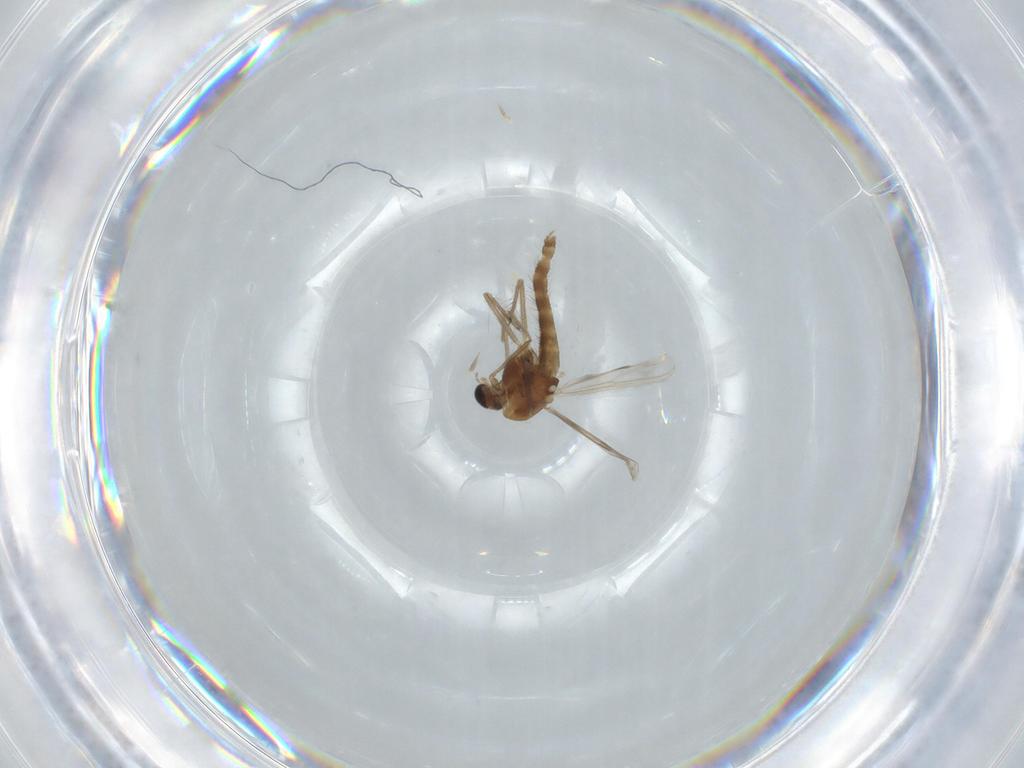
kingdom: Animalia
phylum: Arthropoda
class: Insecta
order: Diptera
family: Chironomidae
